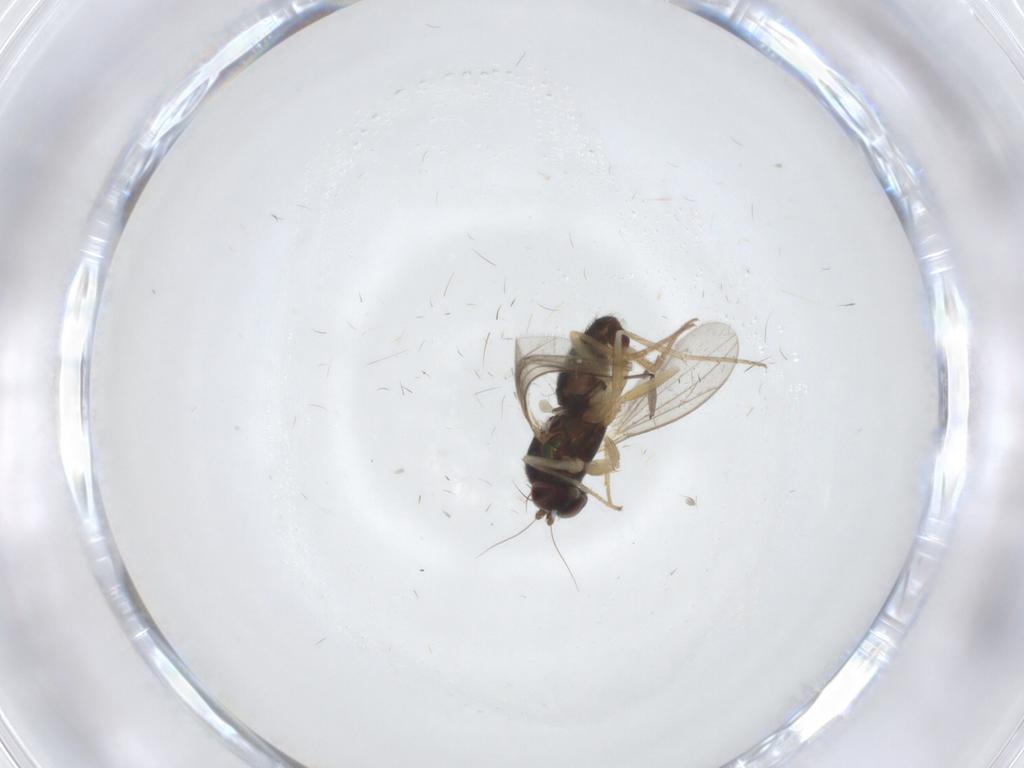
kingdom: Animalia
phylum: Arthropoda
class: Insecta
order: Diptera
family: Dolichopodidae
